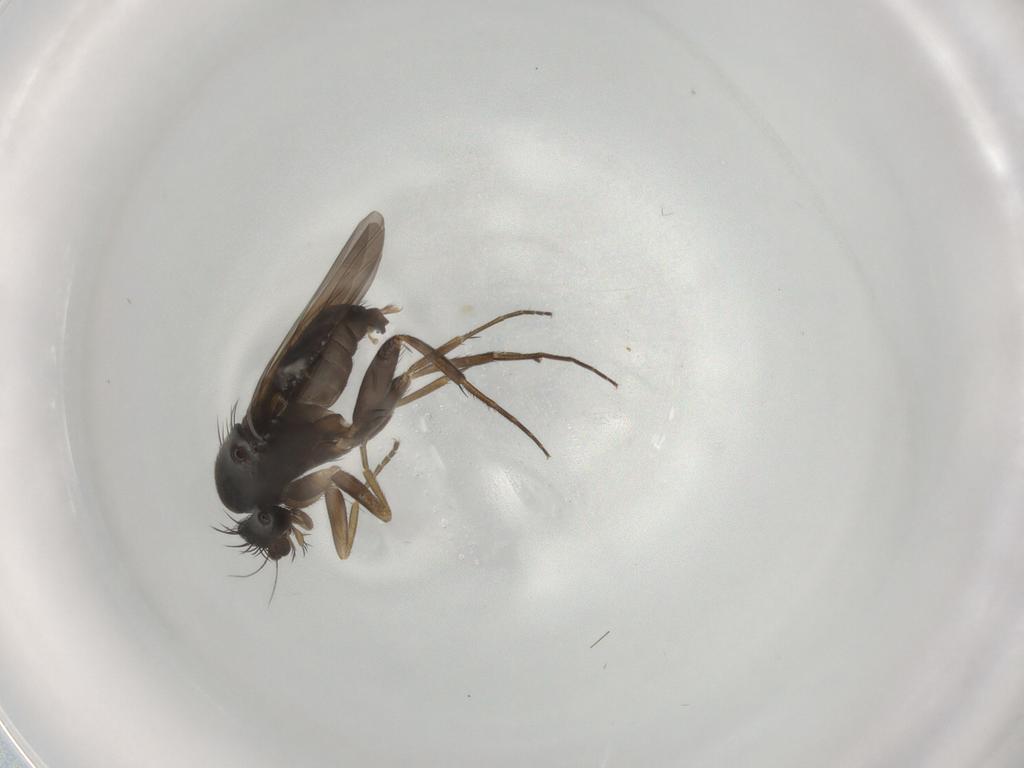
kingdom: Animalia
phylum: Arthropoda
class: Insecta
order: Diptera
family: Phoridae
